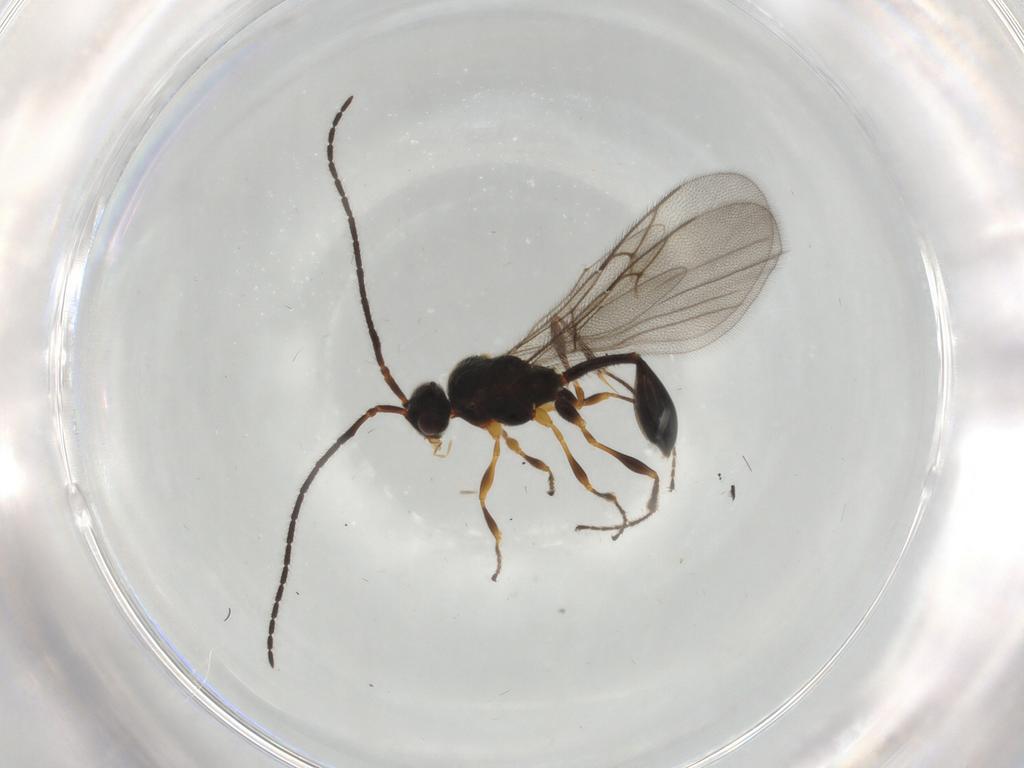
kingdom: Animalia
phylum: Arthropoda
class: Insecta
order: Hymenoptera
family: Diapriidae
